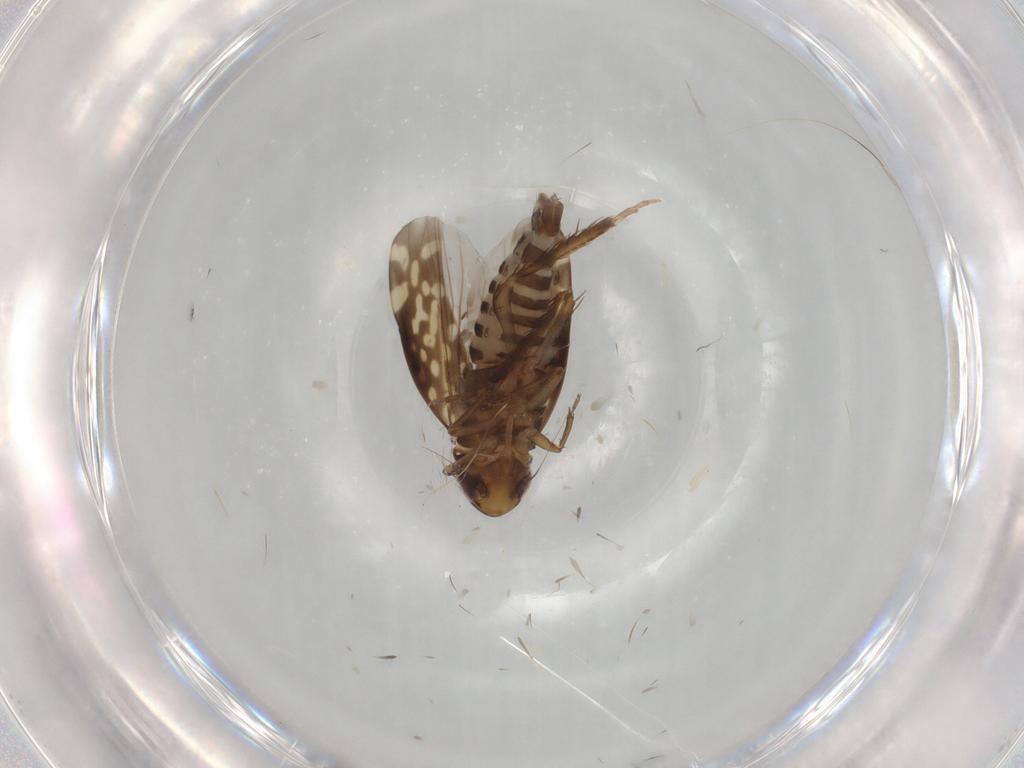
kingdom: Animalia
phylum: Arthropoda
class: Insecta
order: Hemiptera
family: Cicadellidae
